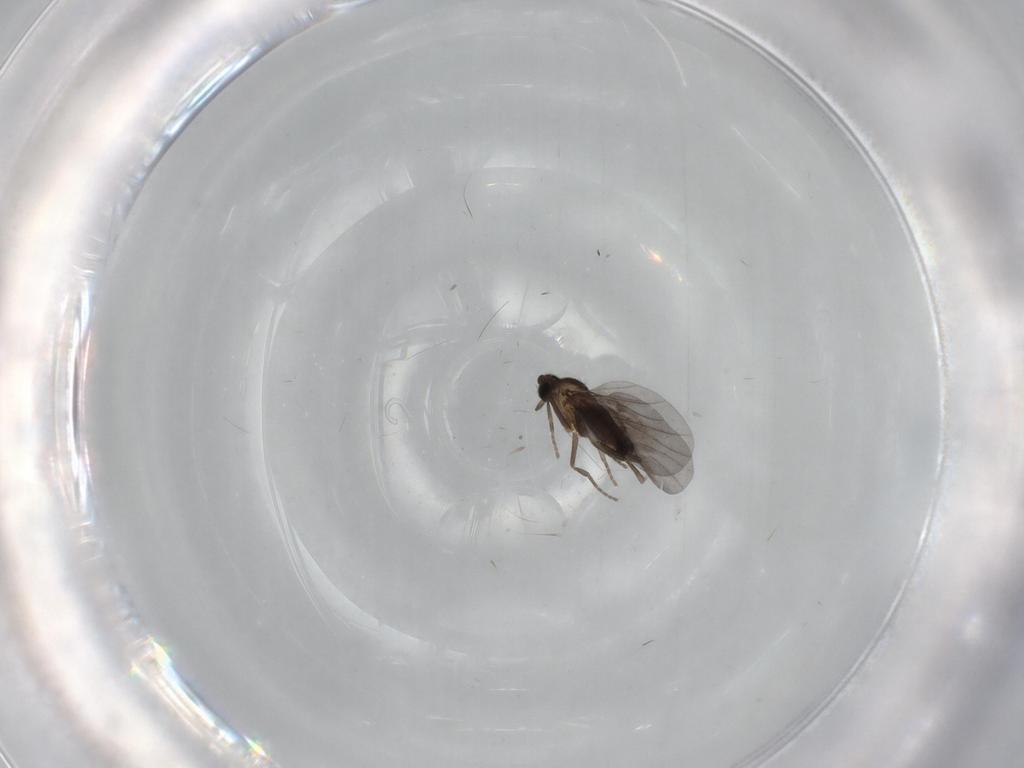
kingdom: Animalia
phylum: Arthropoda
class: Insecta
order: Diptera
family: Phoridae
